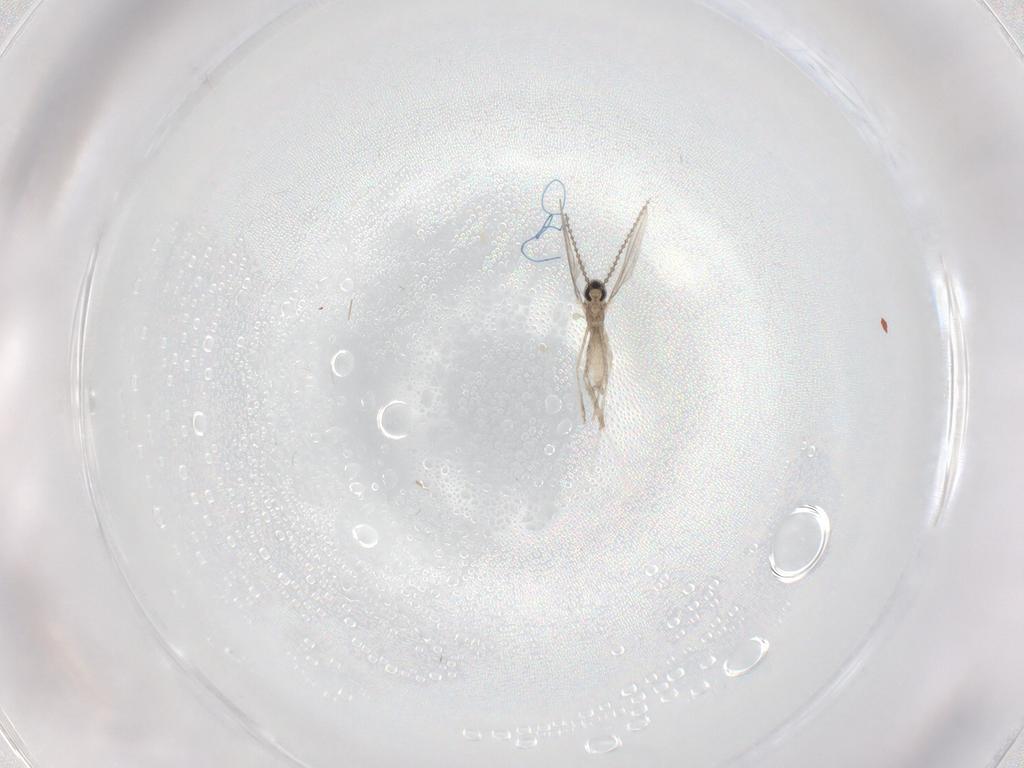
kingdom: Animalia
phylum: Arthropoda
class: Insecta
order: Diptera
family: Cecidomyiidae
